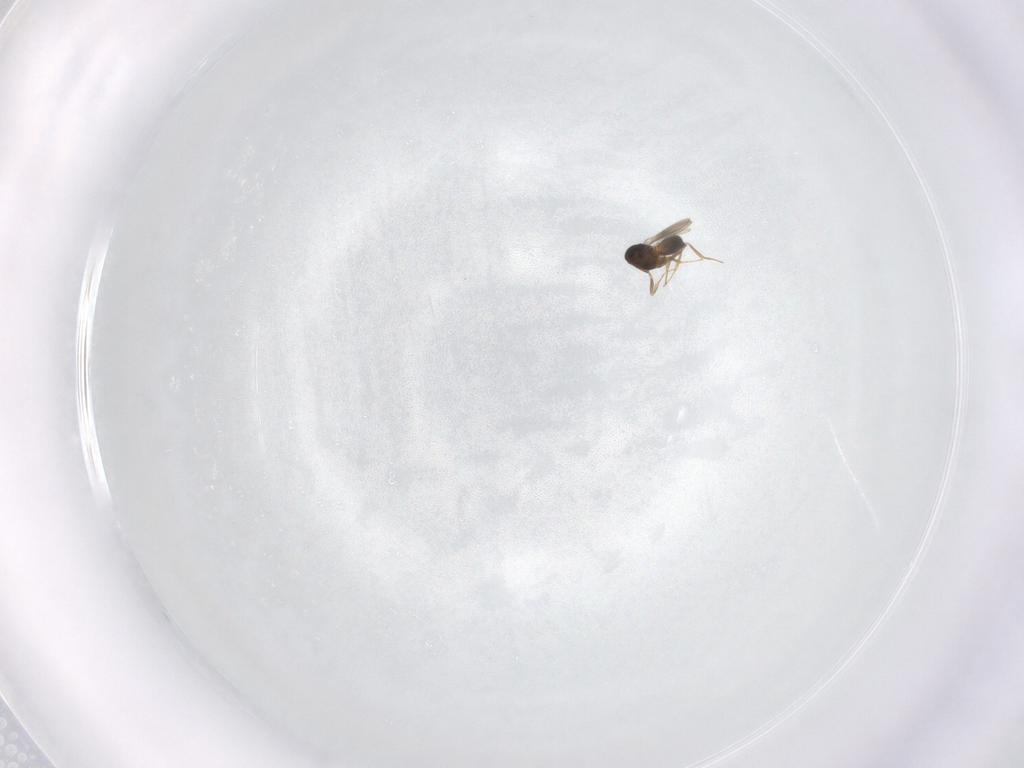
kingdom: Animalia
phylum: Arthropoda
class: Insecta
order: Hymenoptera
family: Scelionidae
